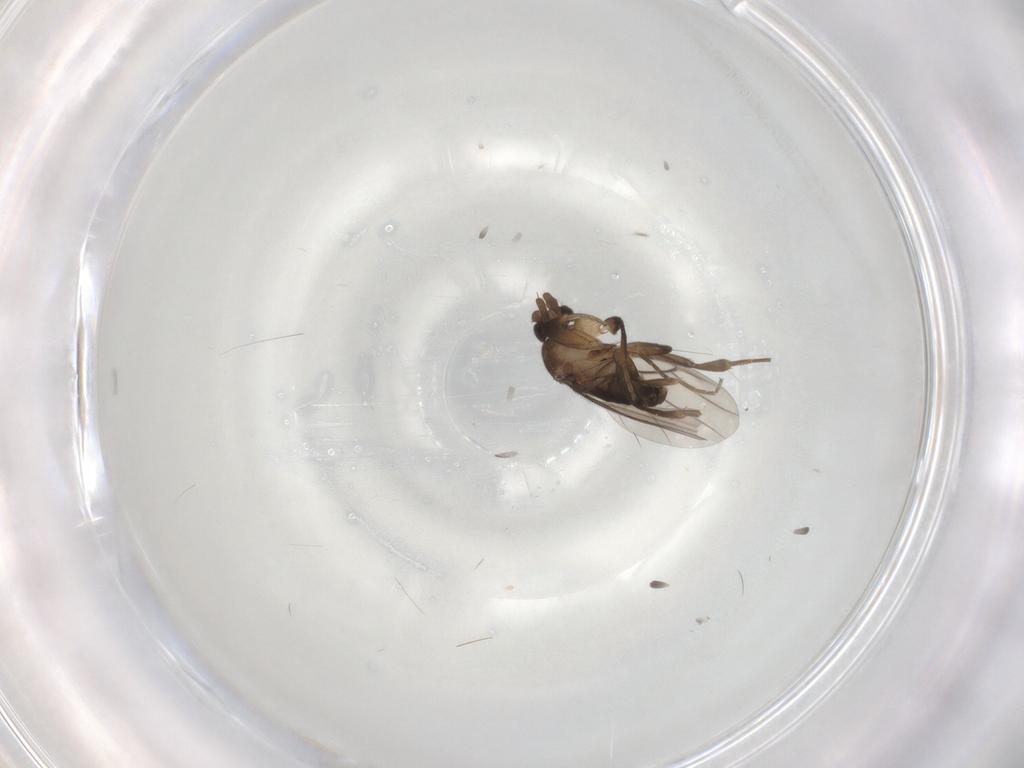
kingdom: Animalia
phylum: Arthropoda
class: Insecta
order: Diptera
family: Phoridae
